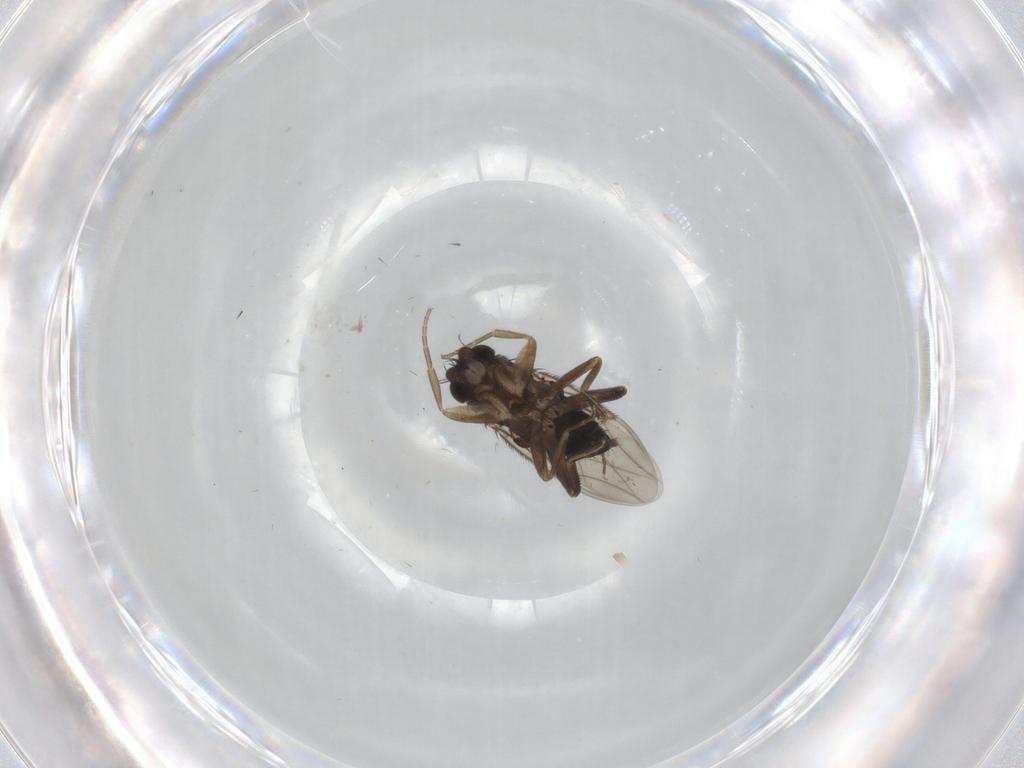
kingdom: Animalia
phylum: Arthropoda
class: Insecta
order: Diptera
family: Phoridae
